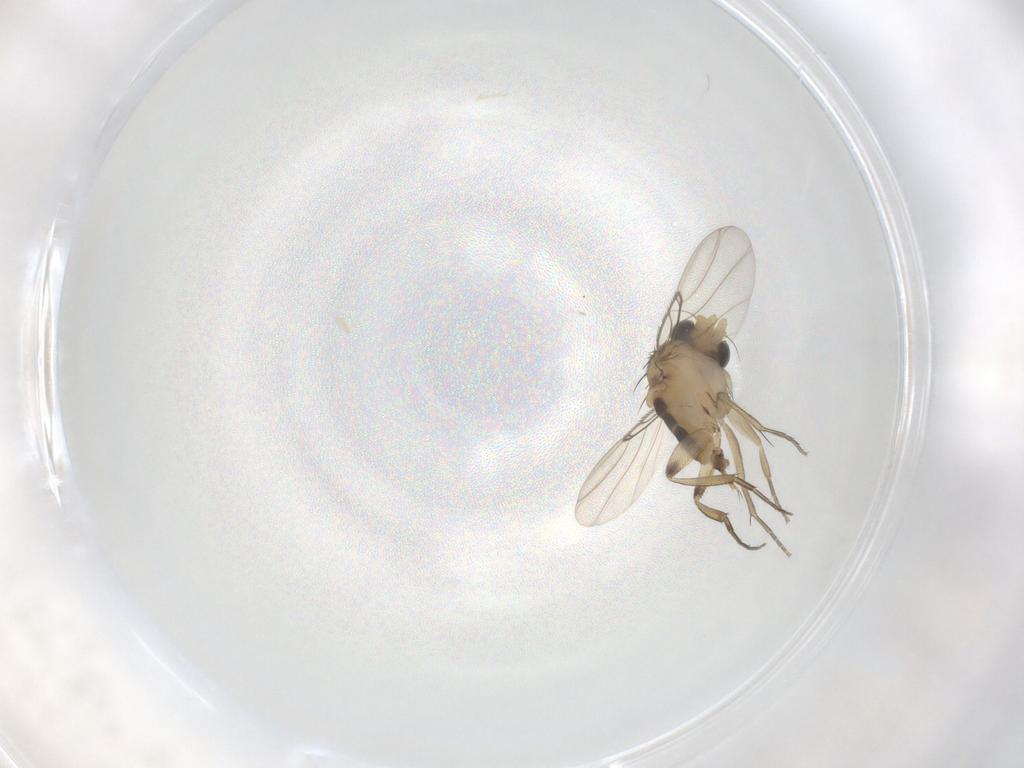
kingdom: Animalia
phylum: Arthropoda
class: Insecta
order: Diptera
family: Phoridae
